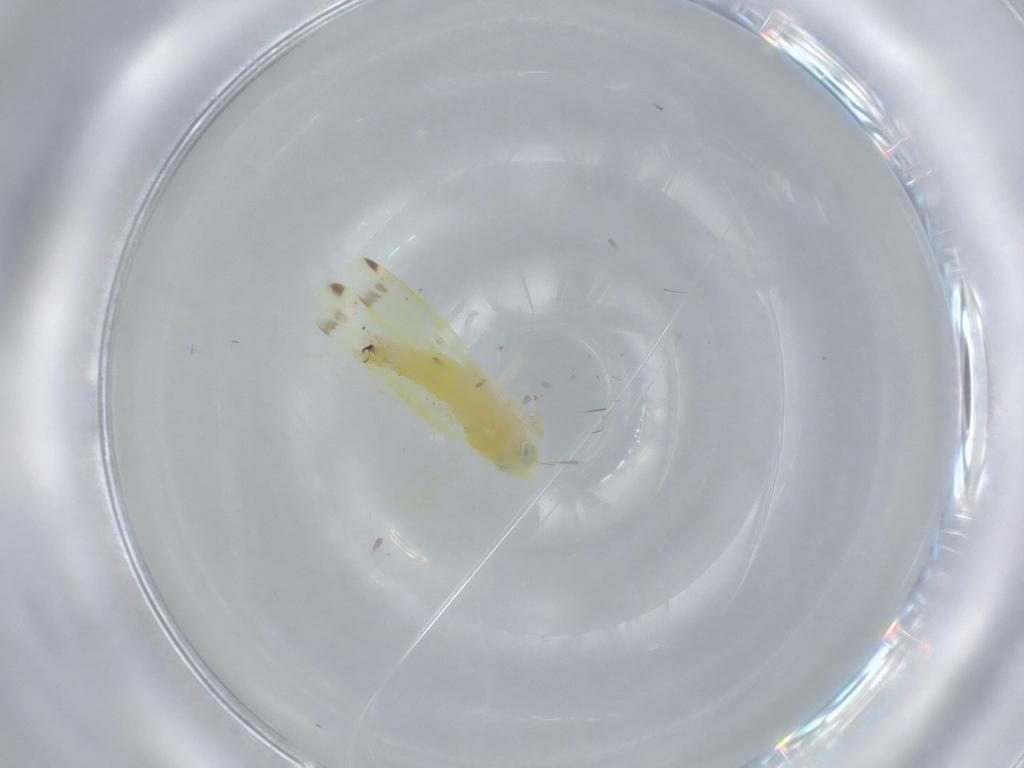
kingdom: Animalia
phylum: Arthropoda
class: Insecta
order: Hemiptera
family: Cicadellidae
